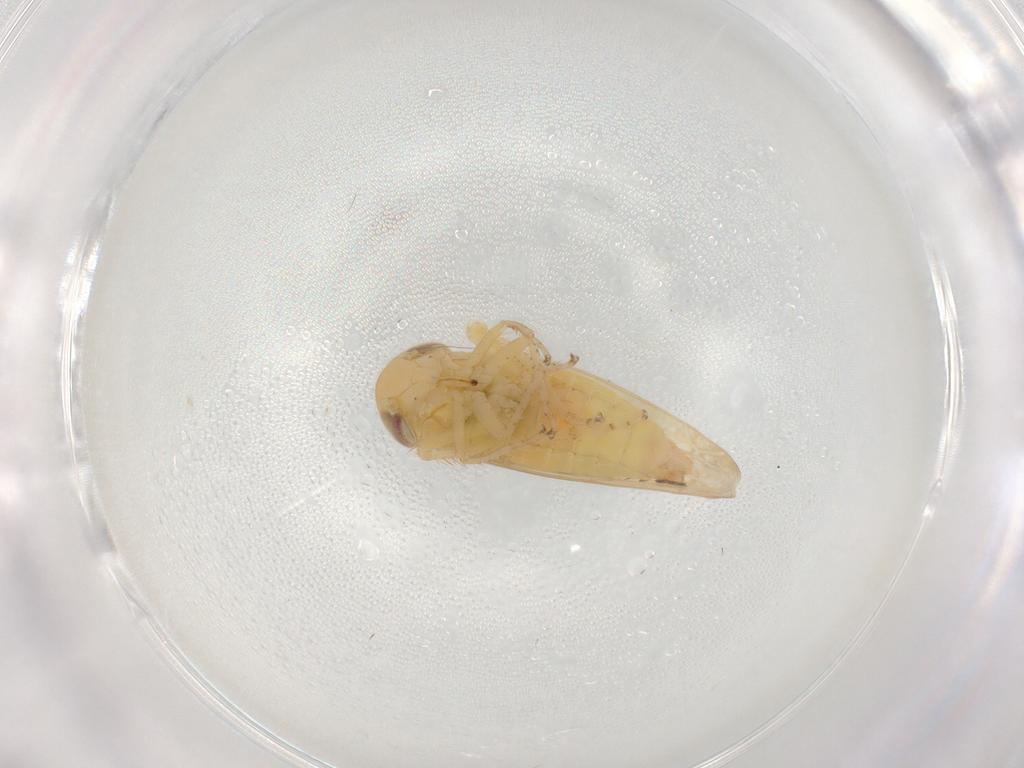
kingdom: Animalia
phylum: Arthropoda
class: Insecta
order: Hemiptera
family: Cicadellidae
